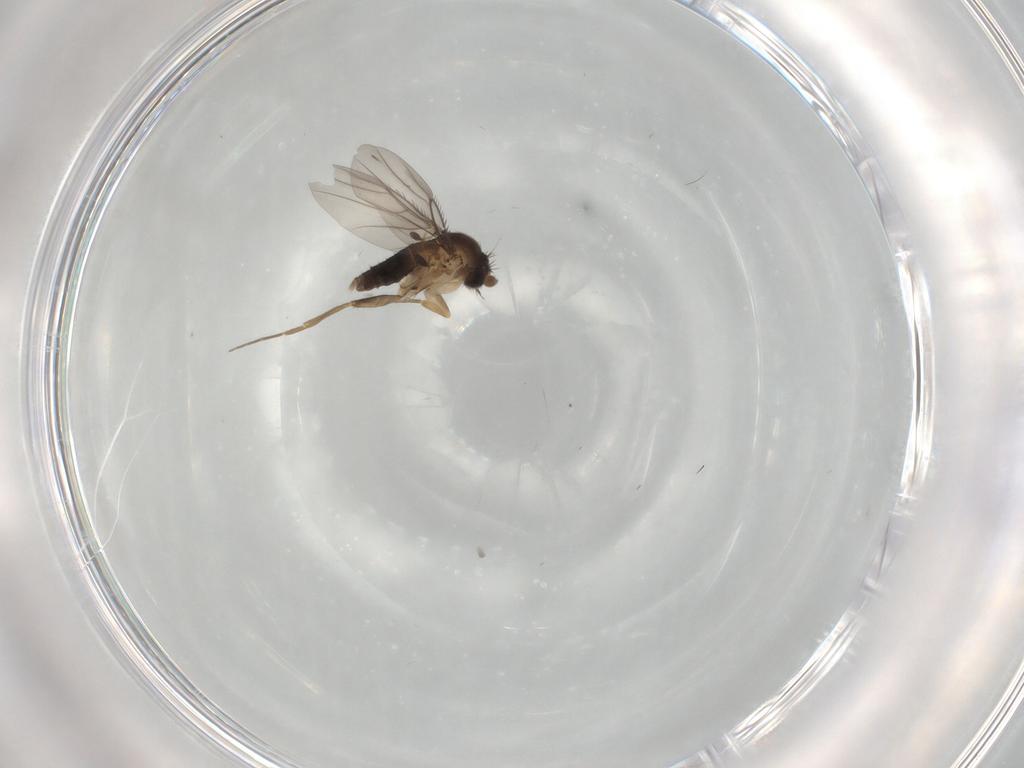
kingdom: Animalia
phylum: Arthropoda
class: Insecta
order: Diptera
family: Phoridae
